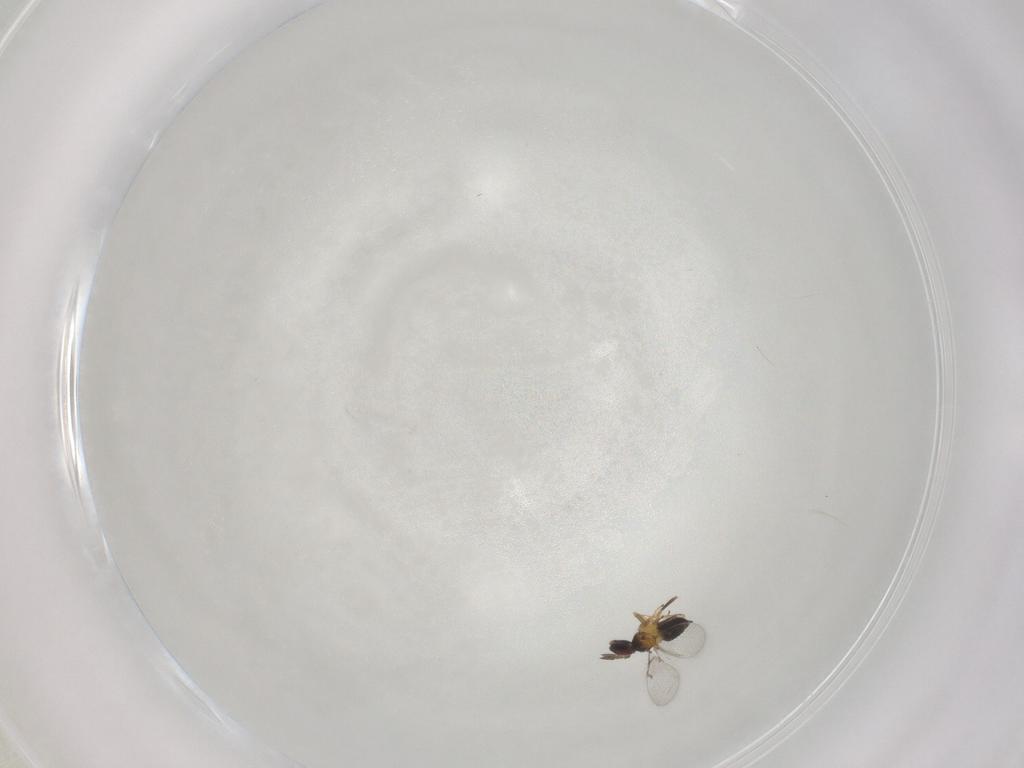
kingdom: Animalia
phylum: Arthropoda
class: Insecta
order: Hymenoptera
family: Trichogrammatidae
